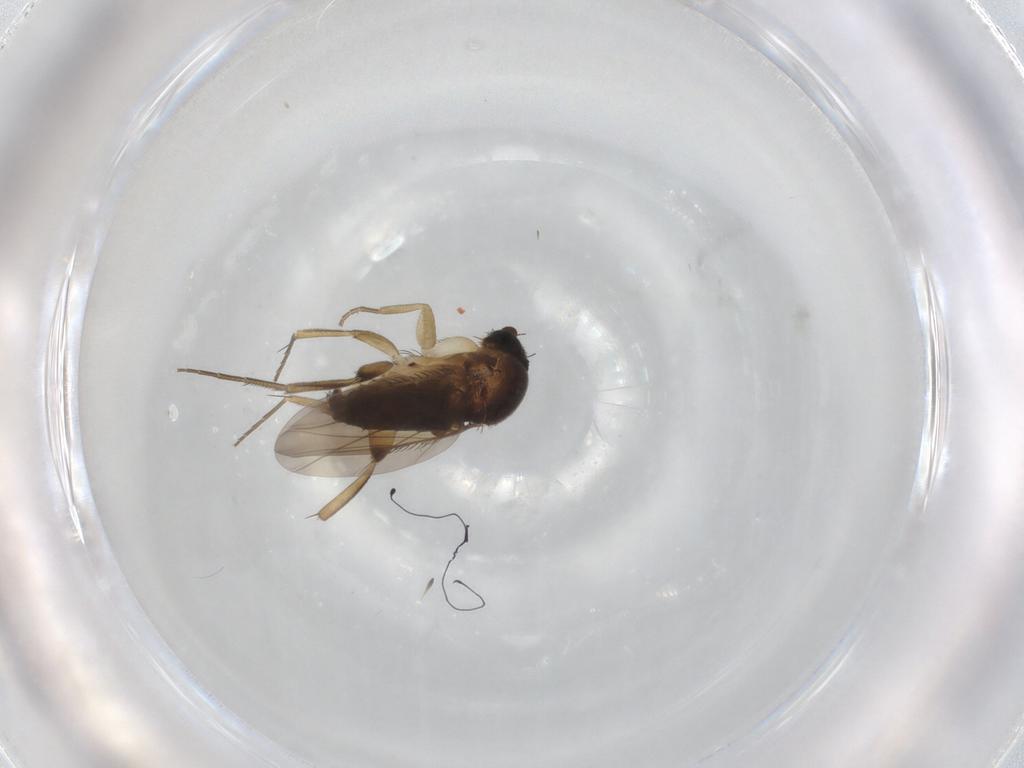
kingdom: Animalia
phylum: Arthropoda
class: Insecta
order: Diptera
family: Phoridae
